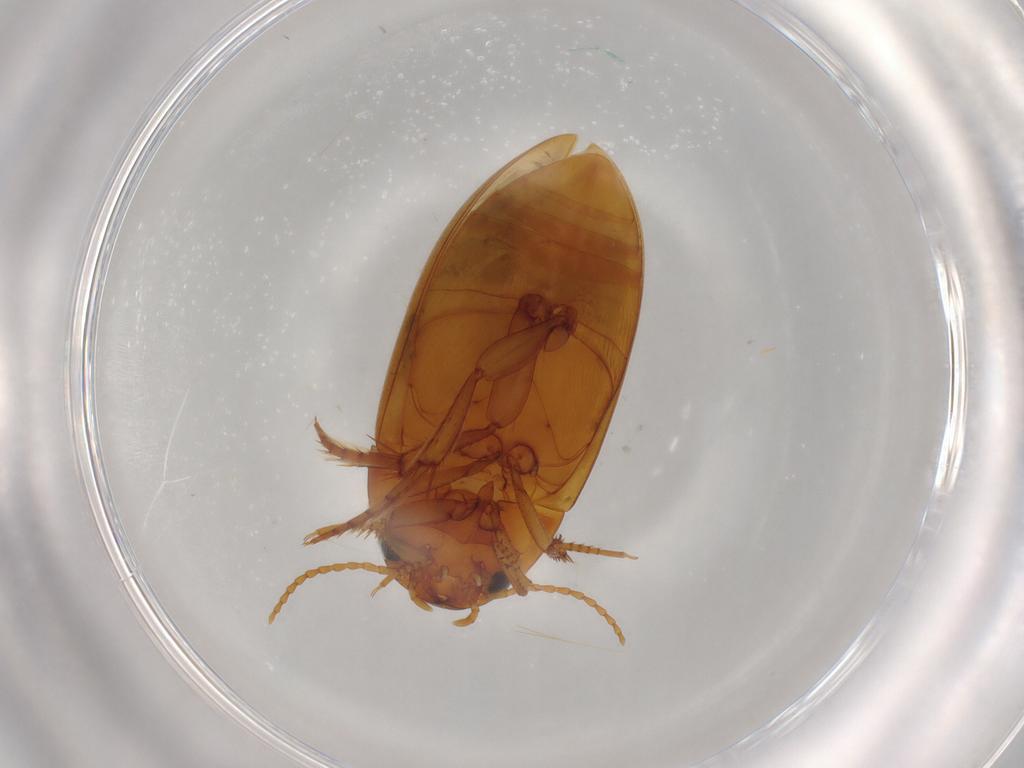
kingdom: Animalia
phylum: Arthropoda
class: Insecta
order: Coleoptera
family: Dytiscidae
